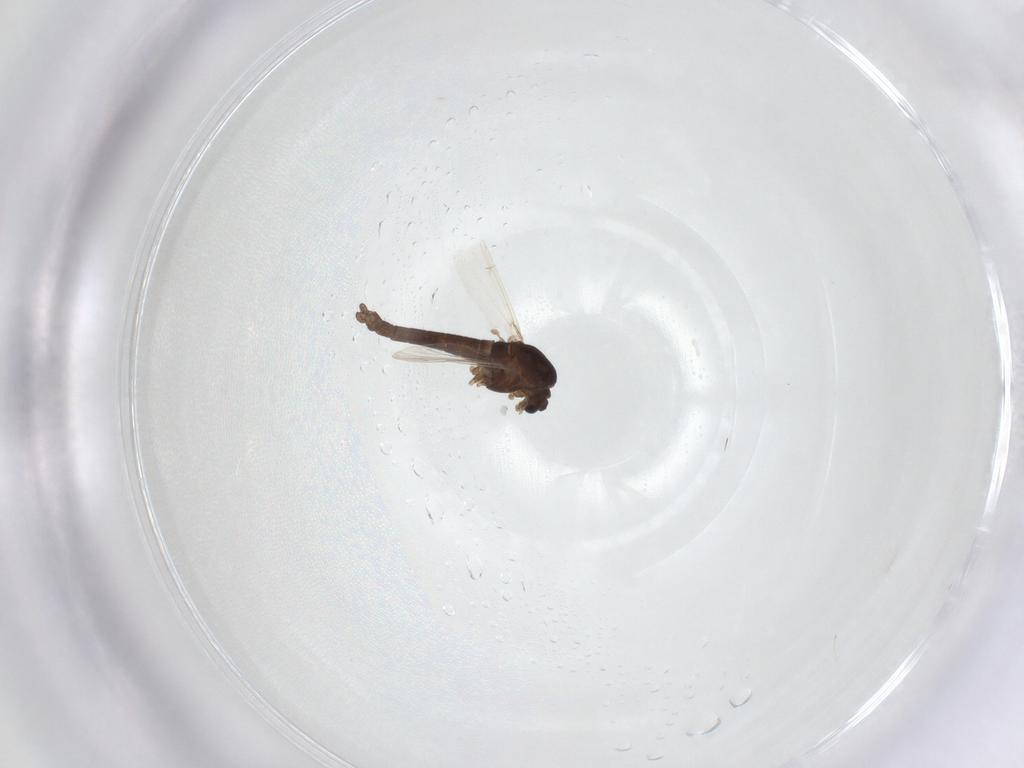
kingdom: Animalia
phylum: Arthropoda
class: Insecta
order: Diptera
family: Chironomidae
